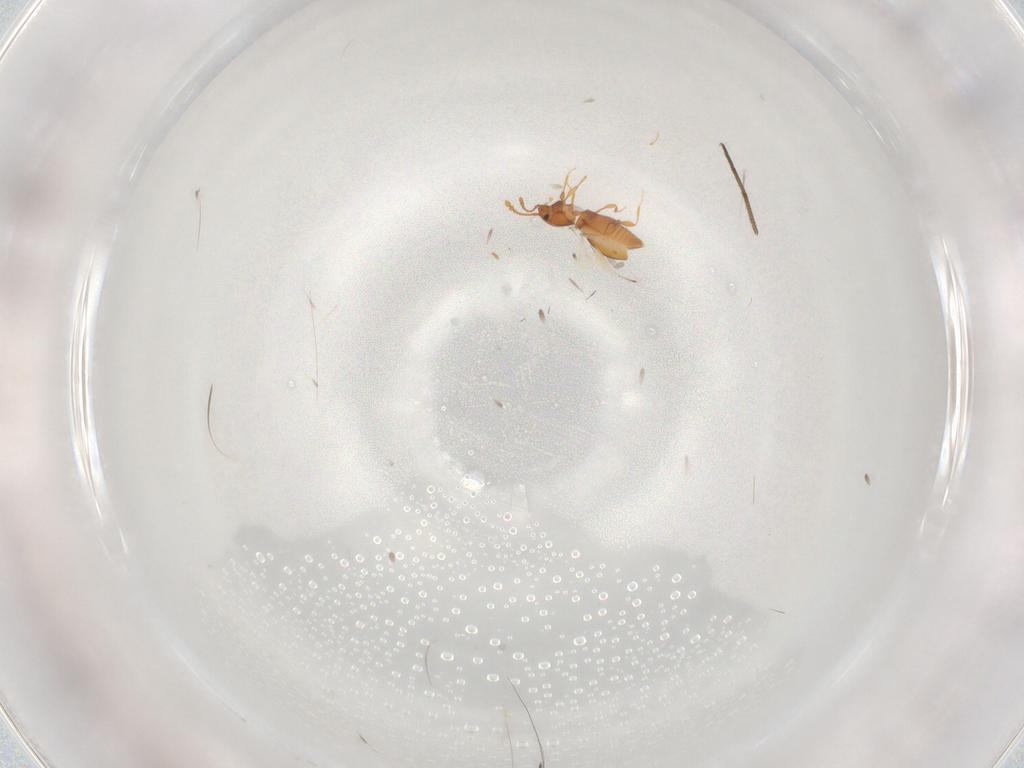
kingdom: Animalia
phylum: Arthropoda
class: Insecta
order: Coleoptera
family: Staphylinidae
